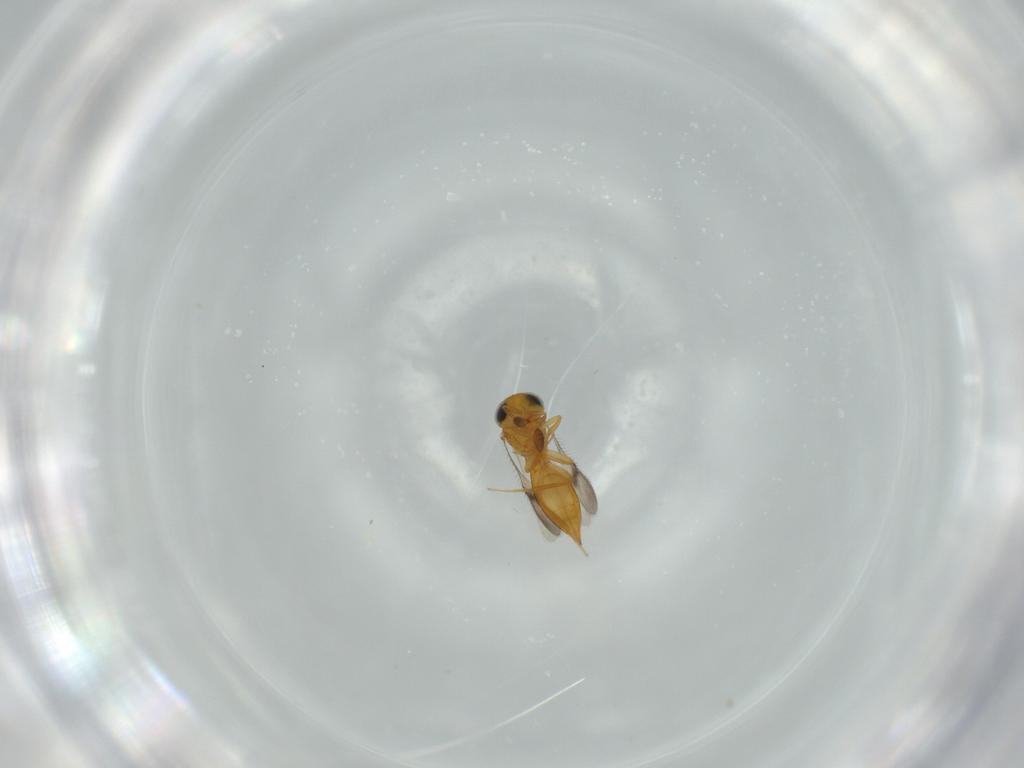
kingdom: Animalia
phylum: Arthropoda
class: Insecta
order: Hymenoptera
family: Scelionidae
